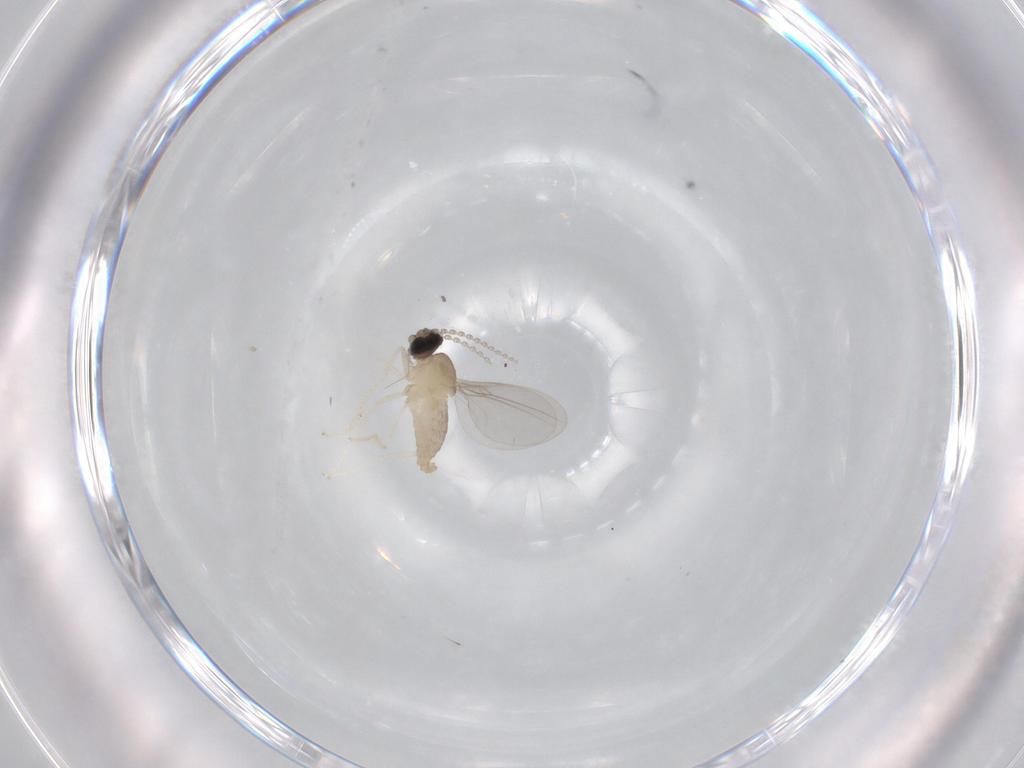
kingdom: Animalia
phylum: Arthropoda
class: Insecta
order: Diptera
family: Cecidomyiidae
